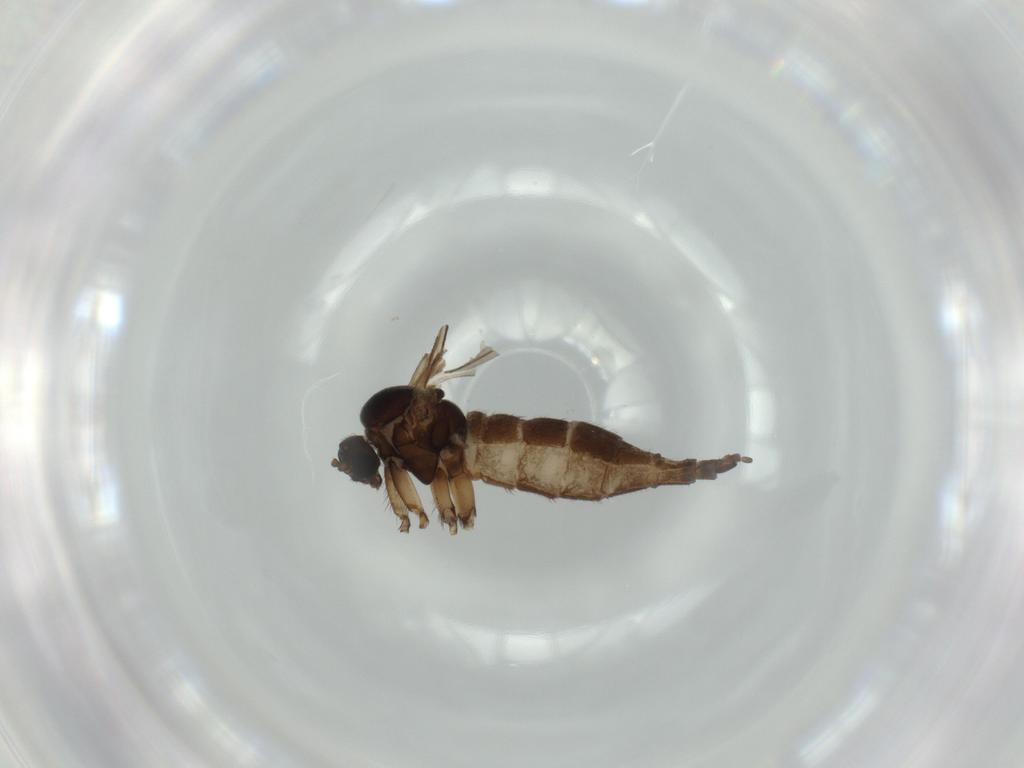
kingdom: Animalia
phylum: Arthropoda
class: Insecta
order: Diptera
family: Sciaridae
